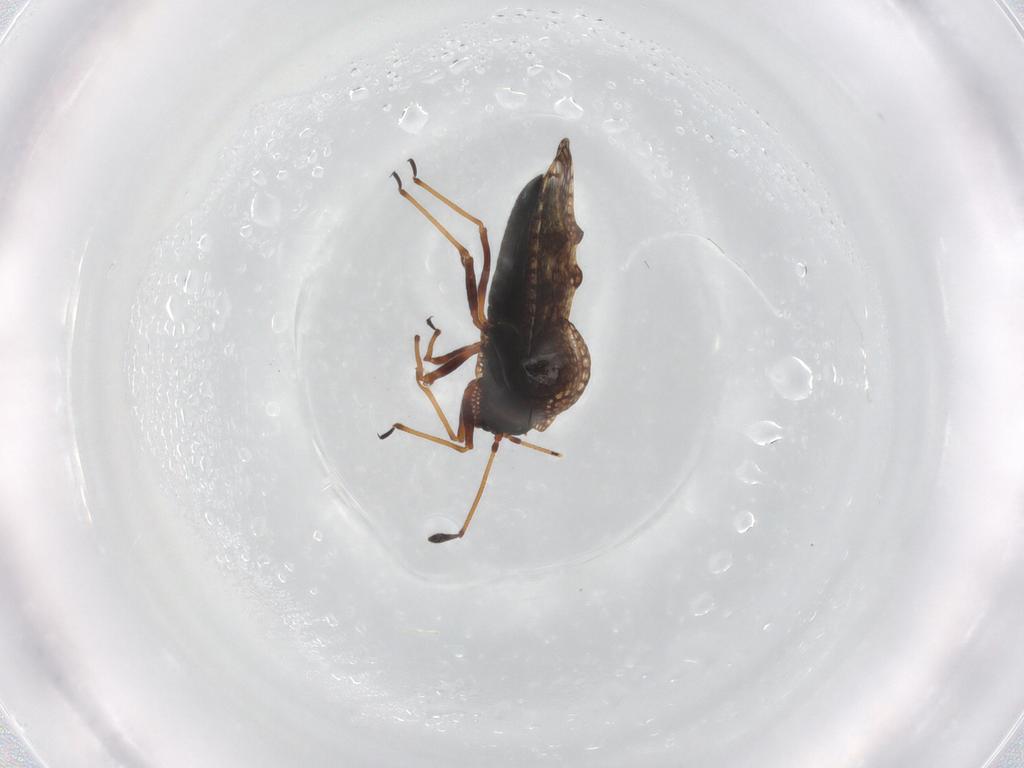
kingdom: Animalia
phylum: Arthropoda
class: Insecta
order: Hemiptera
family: Tingidae
